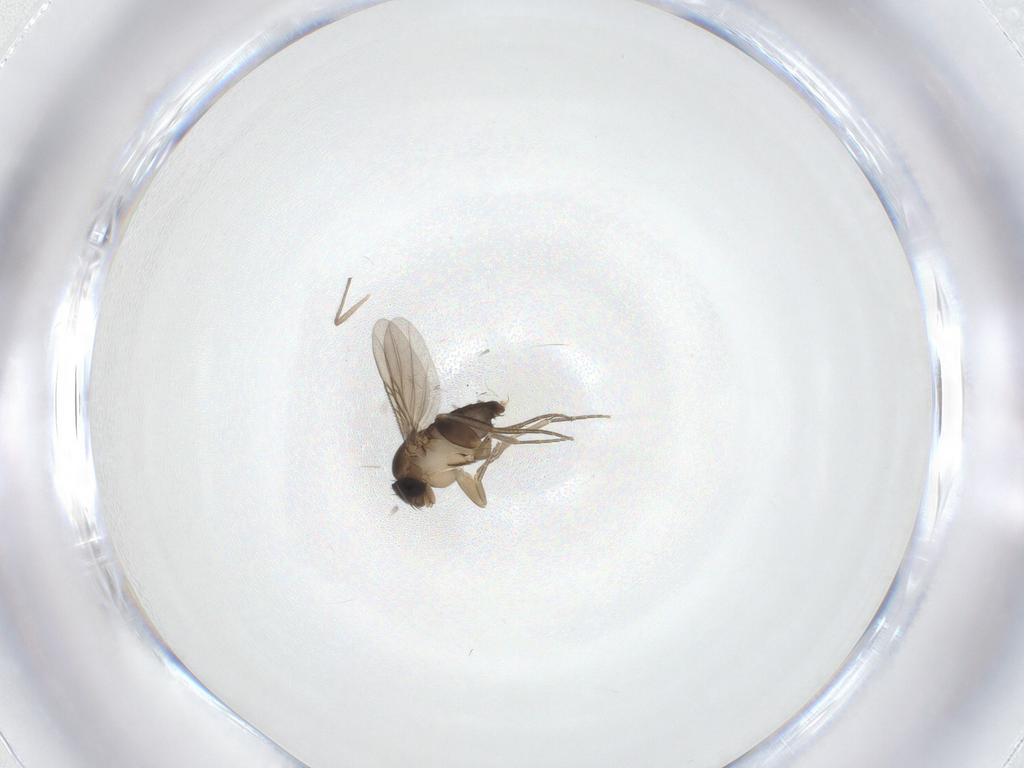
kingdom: Animalia
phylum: Arthropoda
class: Insecta
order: Diptera
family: Phoridae
